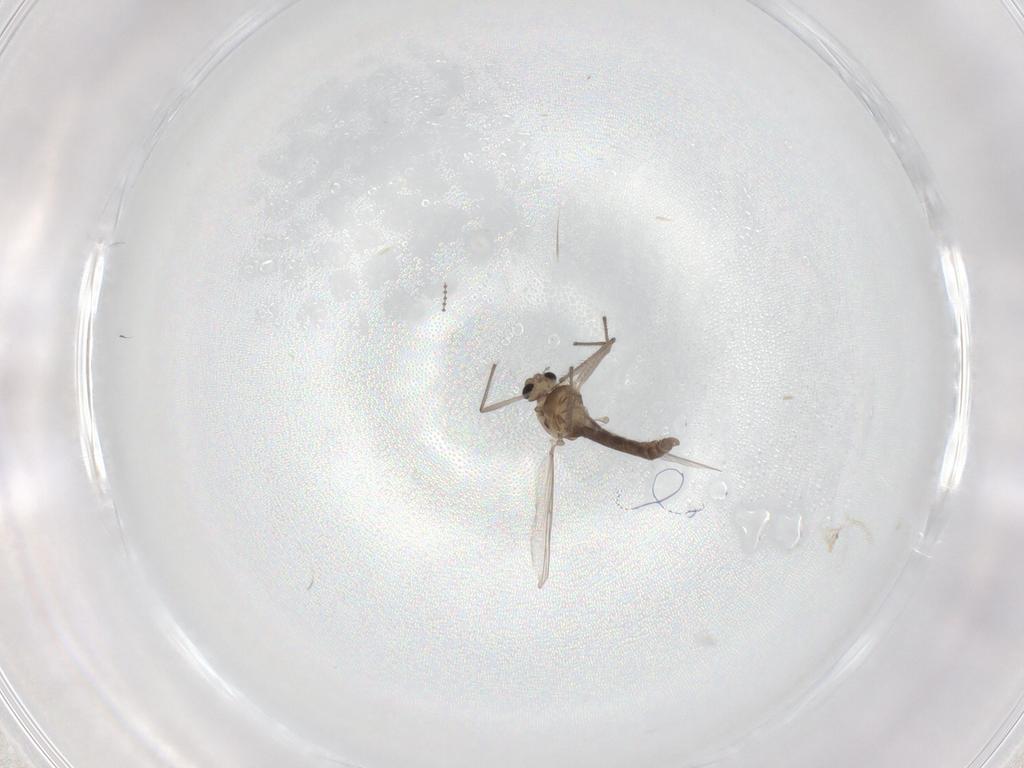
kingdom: Animalia
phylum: Arthropoda
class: Insecta
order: Diptera
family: Chironomidae
